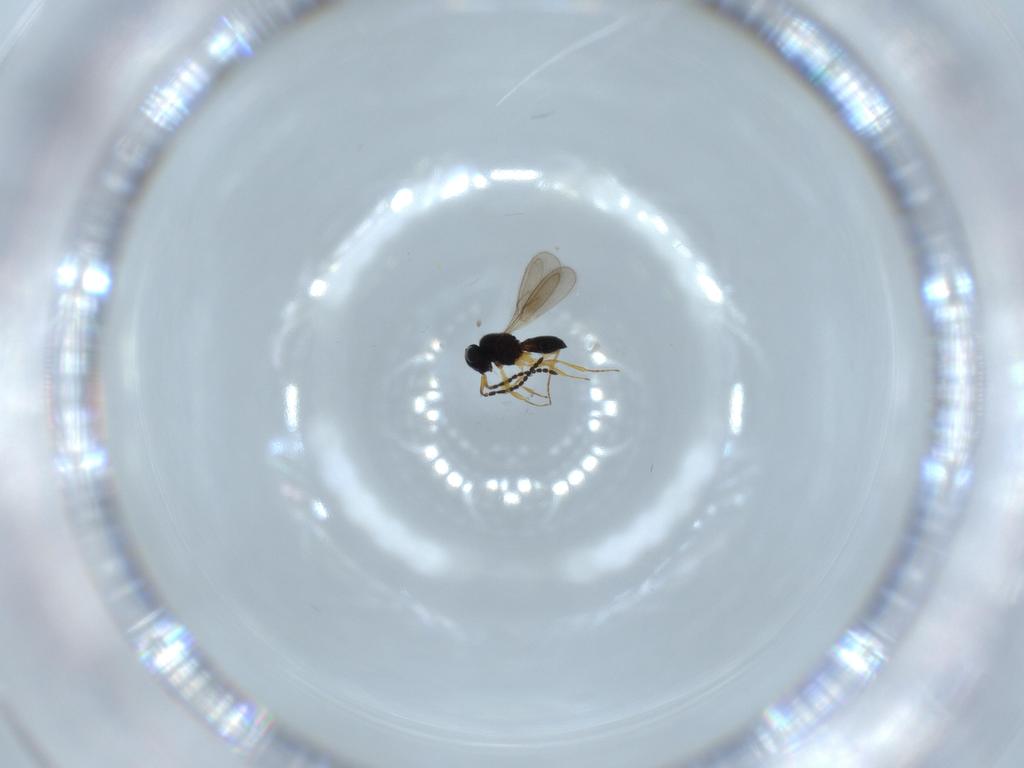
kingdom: Animalia
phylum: Arthropoda
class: Insecta
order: Hymenoptera
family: Scelionidae
